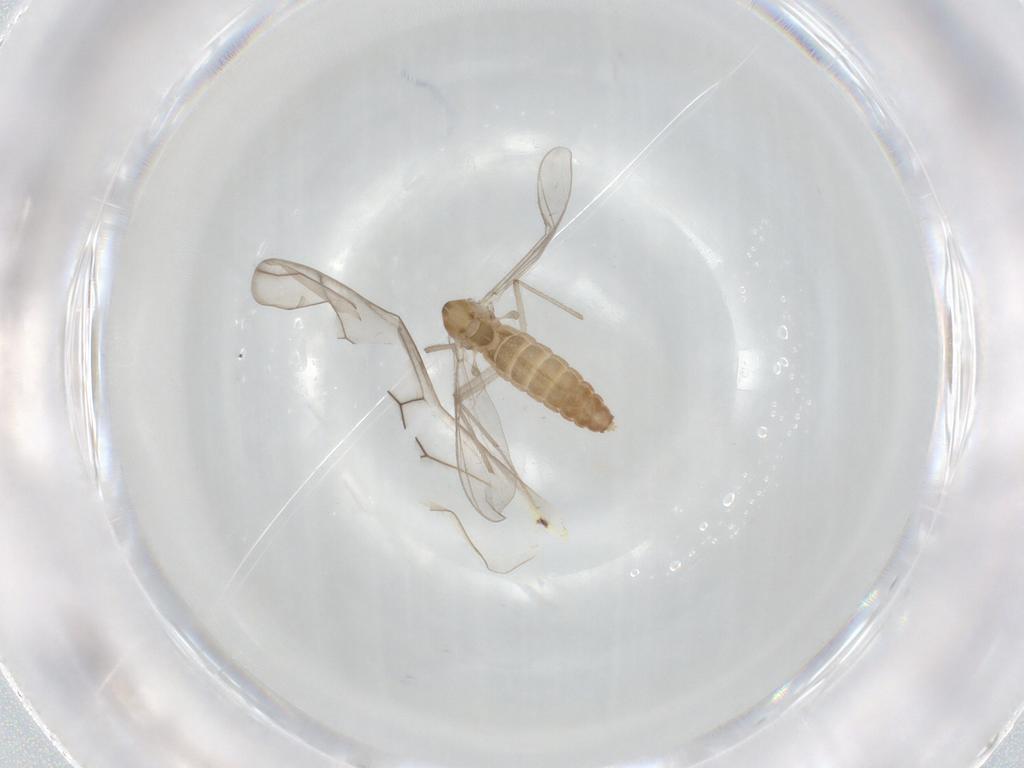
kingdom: Animalia
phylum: Arthropoda
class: Insecta
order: Diptera
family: Chironomidae
